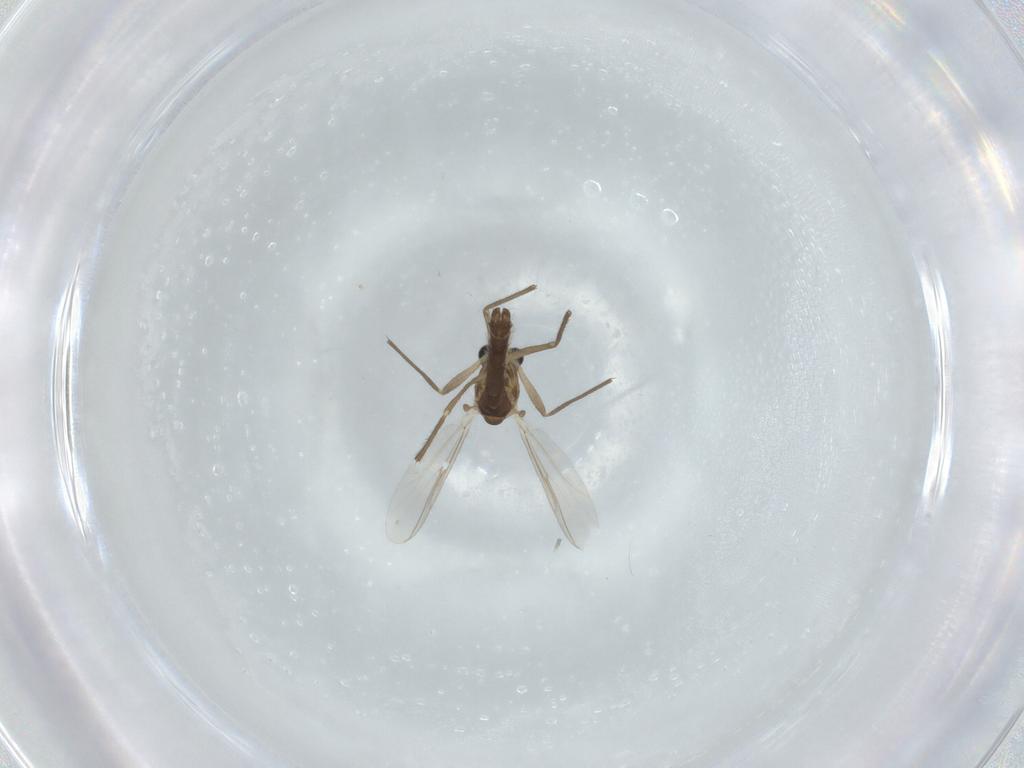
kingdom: Animalia
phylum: Arthropoda
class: Insecta
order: Diptera
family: Chironomidae
